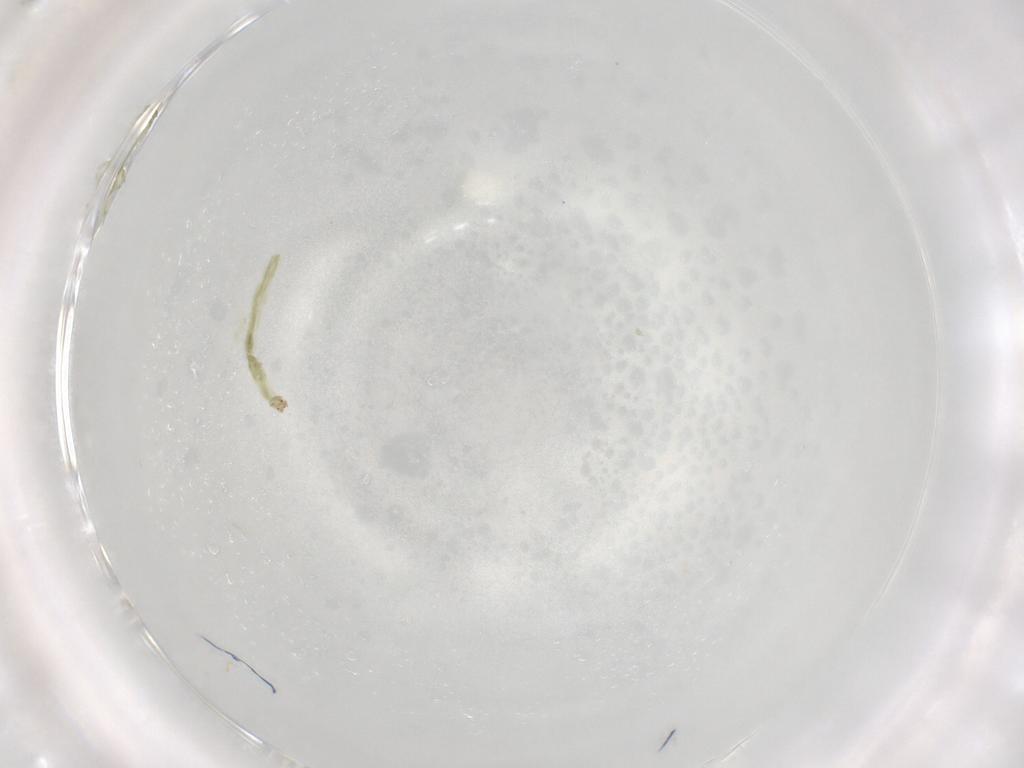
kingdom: Animalia
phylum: Arthropoda
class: Insecta
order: Diptera
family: Chironomidae
